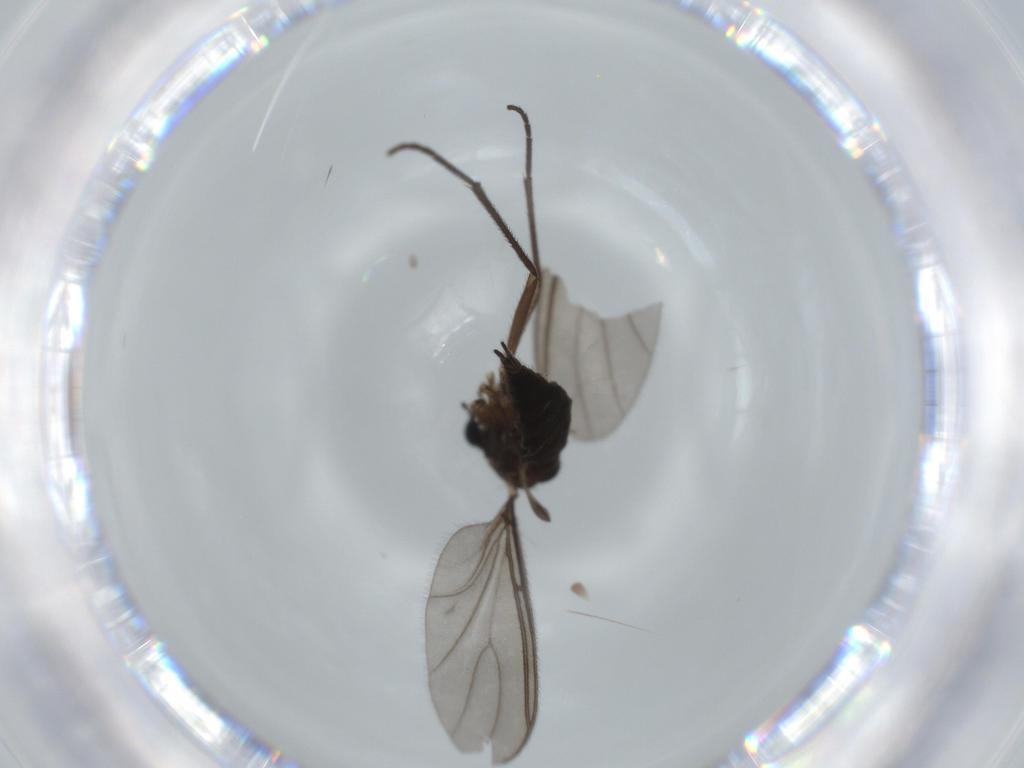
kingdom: Animalia
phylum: Arthropoda
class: Insecta
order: Diptera
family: Sciaridae
